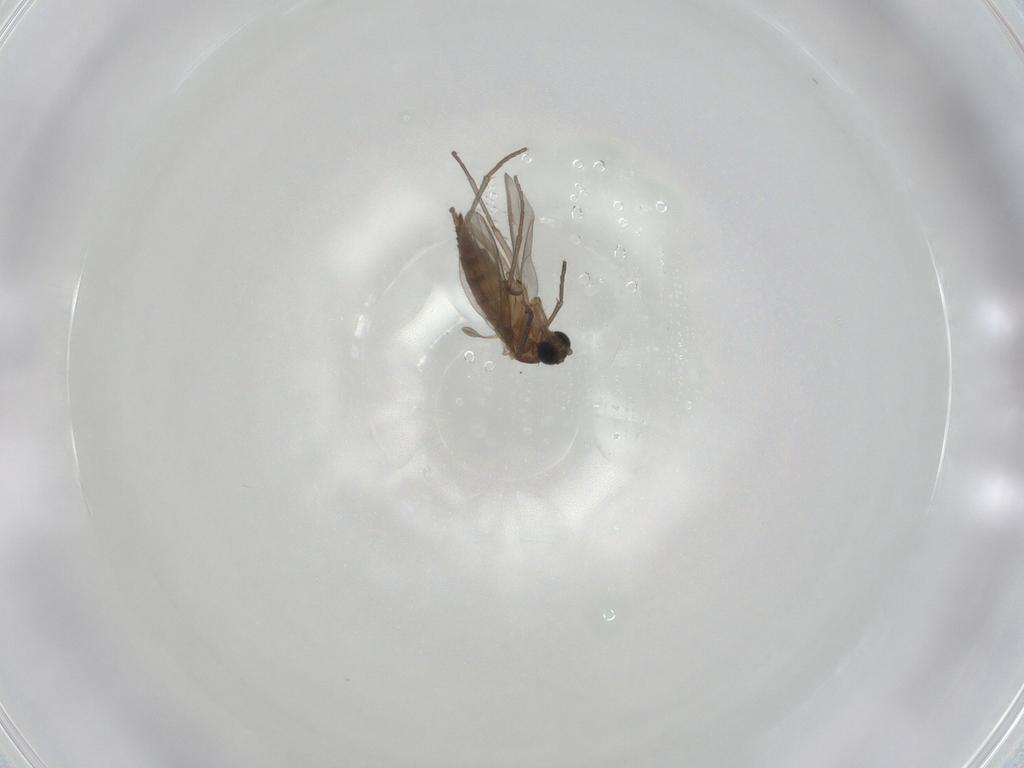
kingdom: Animalia
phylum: Arthropoda
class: Insecta
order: Diptera
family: Sciaridae
